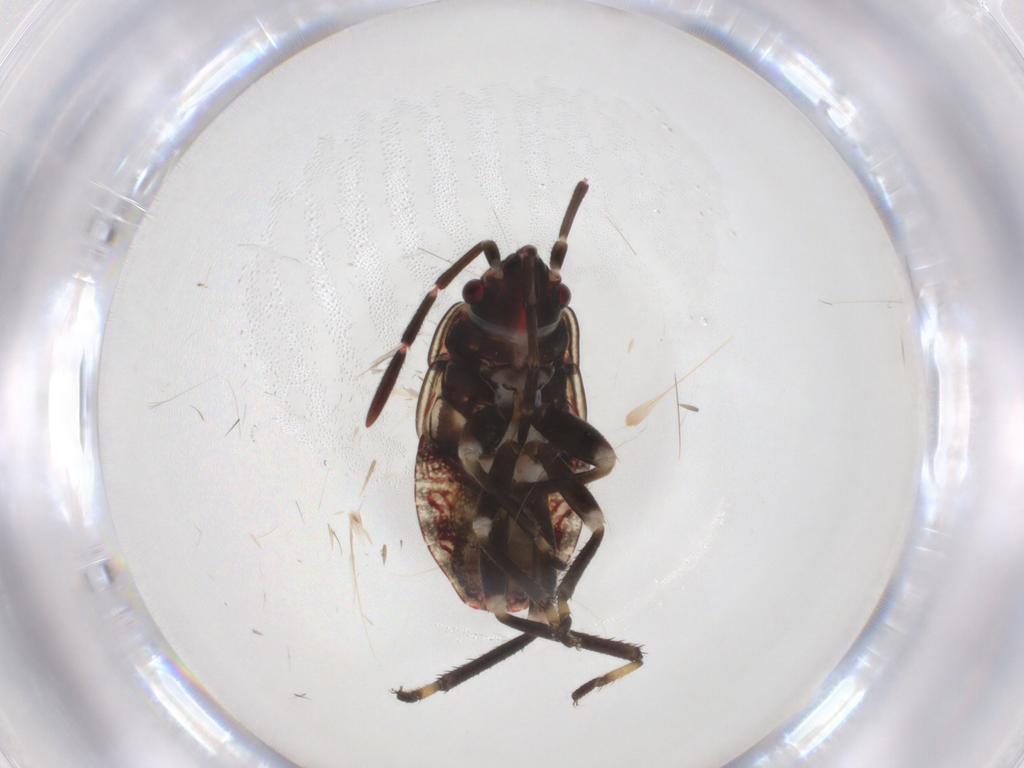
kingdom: Animalia
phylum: Arthropoda
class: Insecta
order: Hemiptera
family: Tropiduchidae
